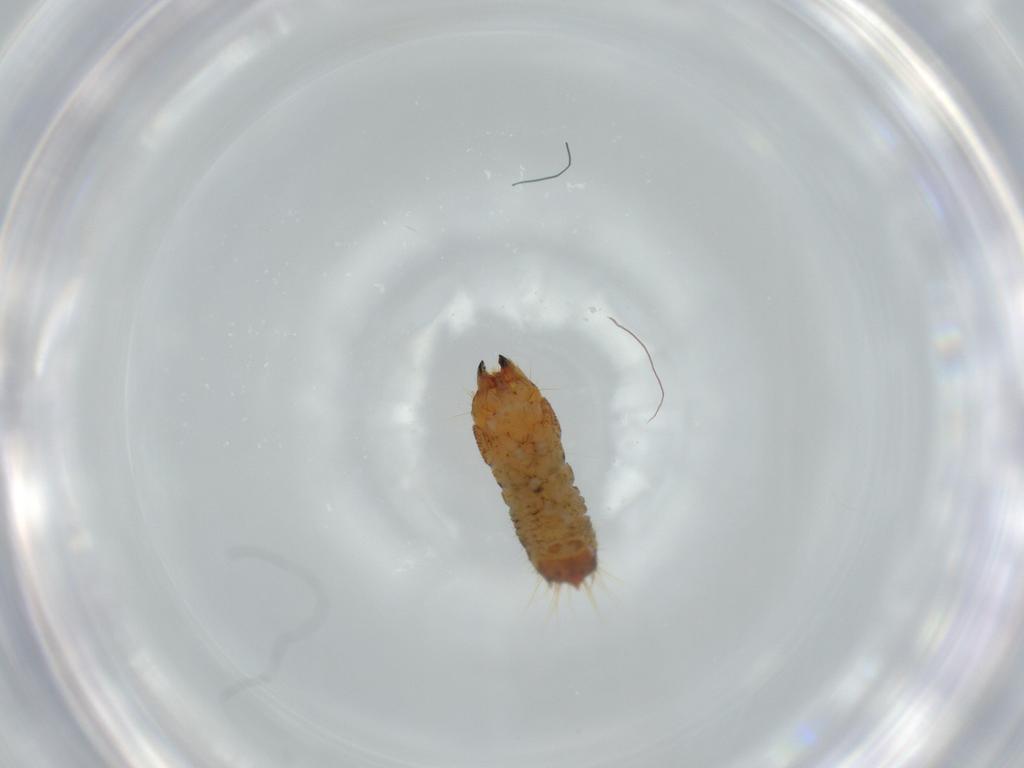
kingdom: Animalia
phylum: Arthropoda
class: Insecta
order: Coleoptera
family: Lymexylidae
